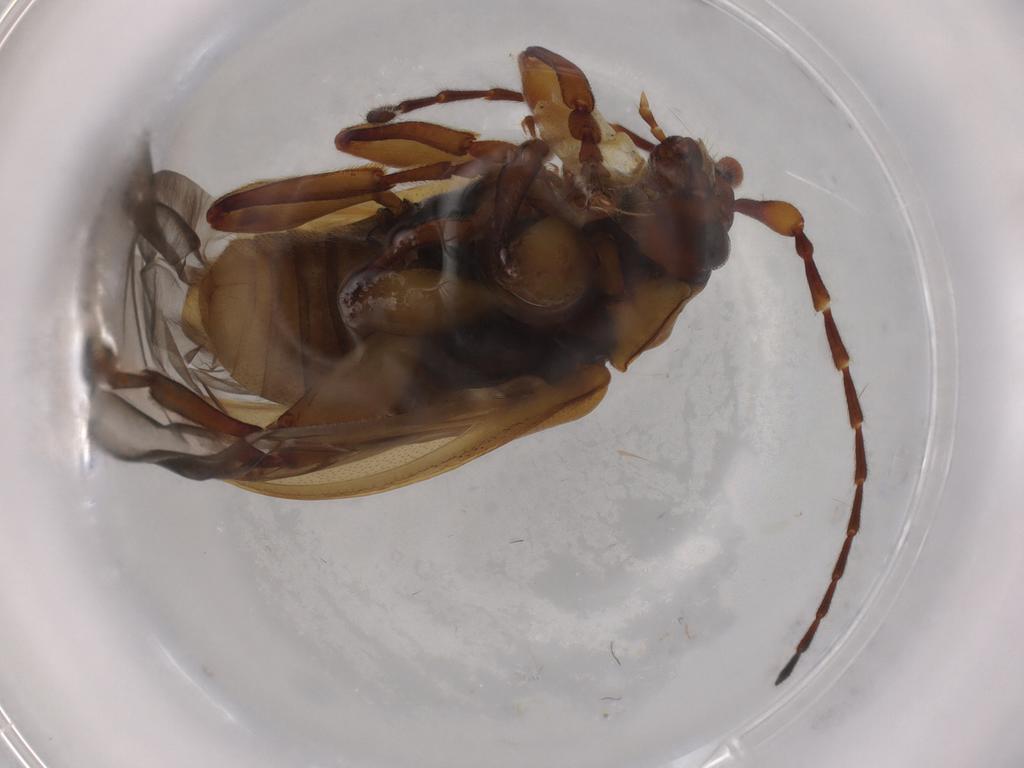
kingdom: Animalia
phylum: Arthropoda
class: Insecta
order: Coleoptera
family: Chrysomelidae
